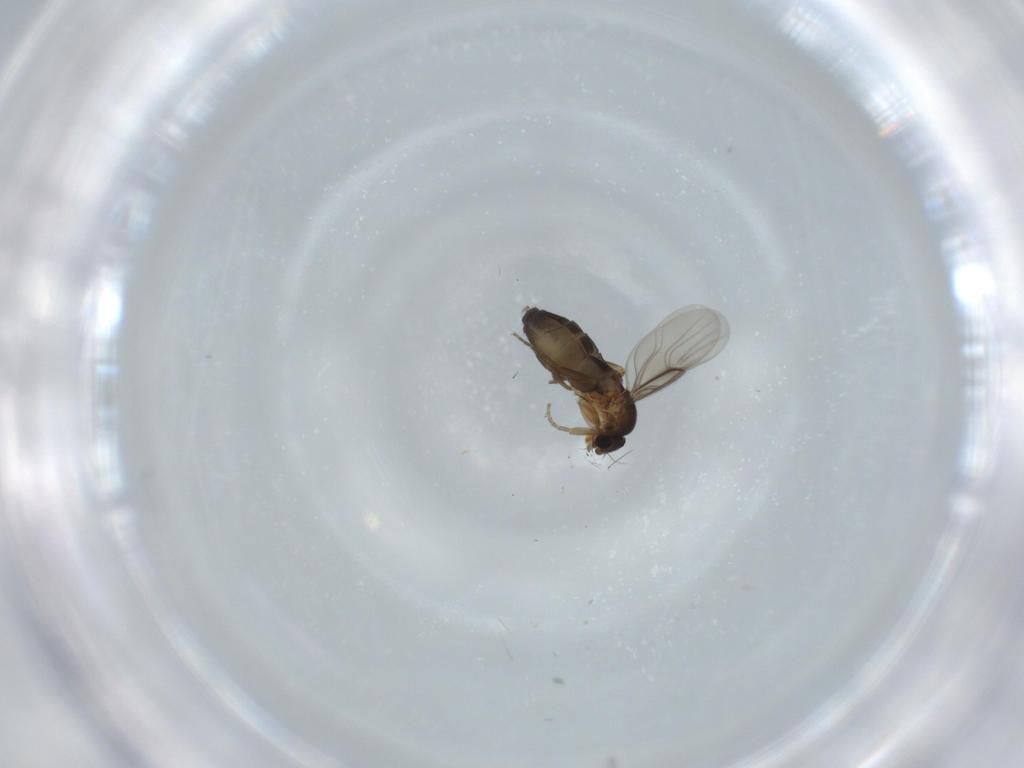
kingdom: Animalia
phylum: Arthropoda
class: Insecta
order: Diptera
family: Phoridae
